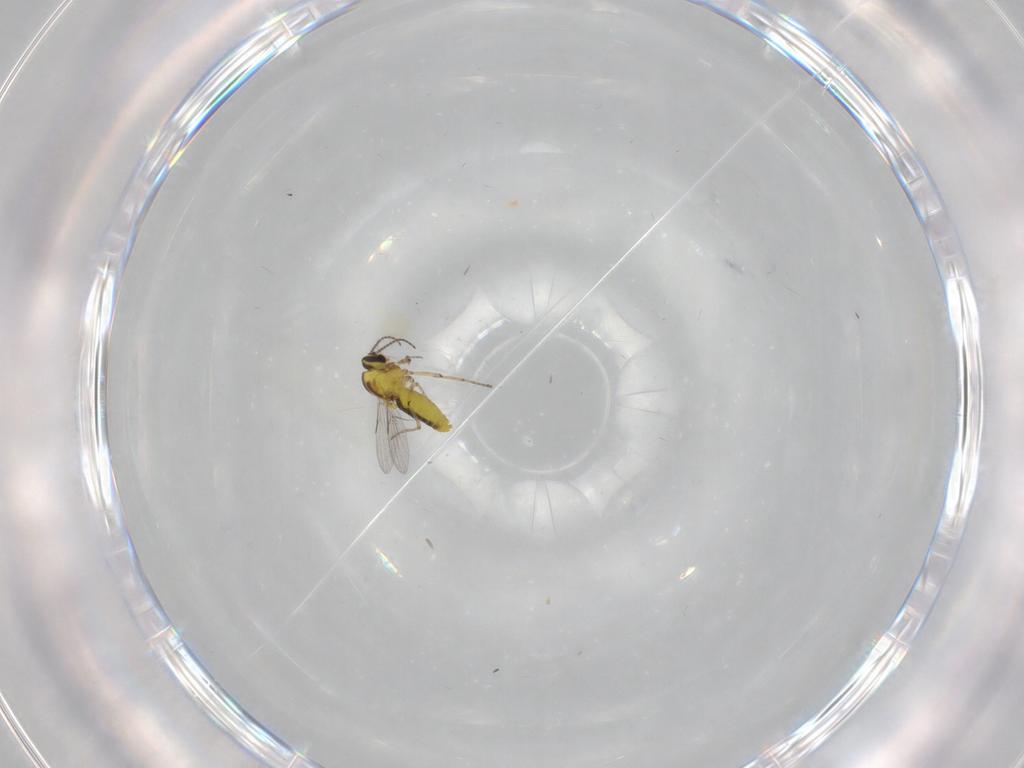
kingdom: Animalia
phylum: Arthropoda
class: Insecta
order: Diptera
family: Ceratopogonidae
